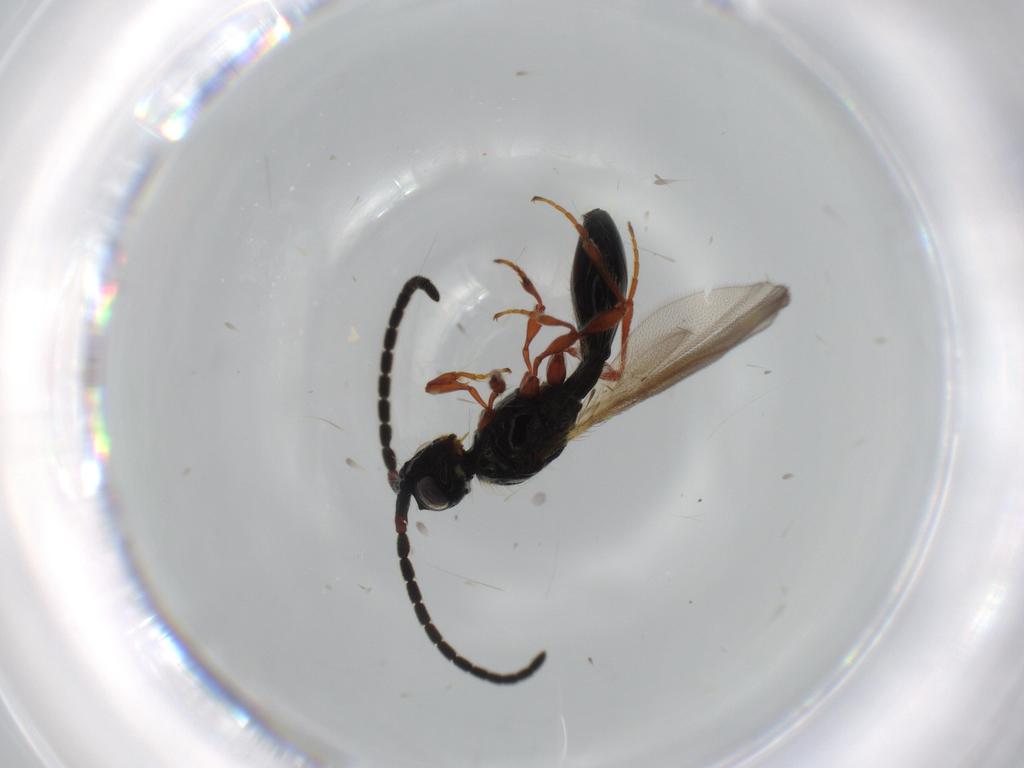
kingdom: Animalia
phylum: Arthropoda
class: Insecta
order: Hymenoptera
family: Diapriidae
